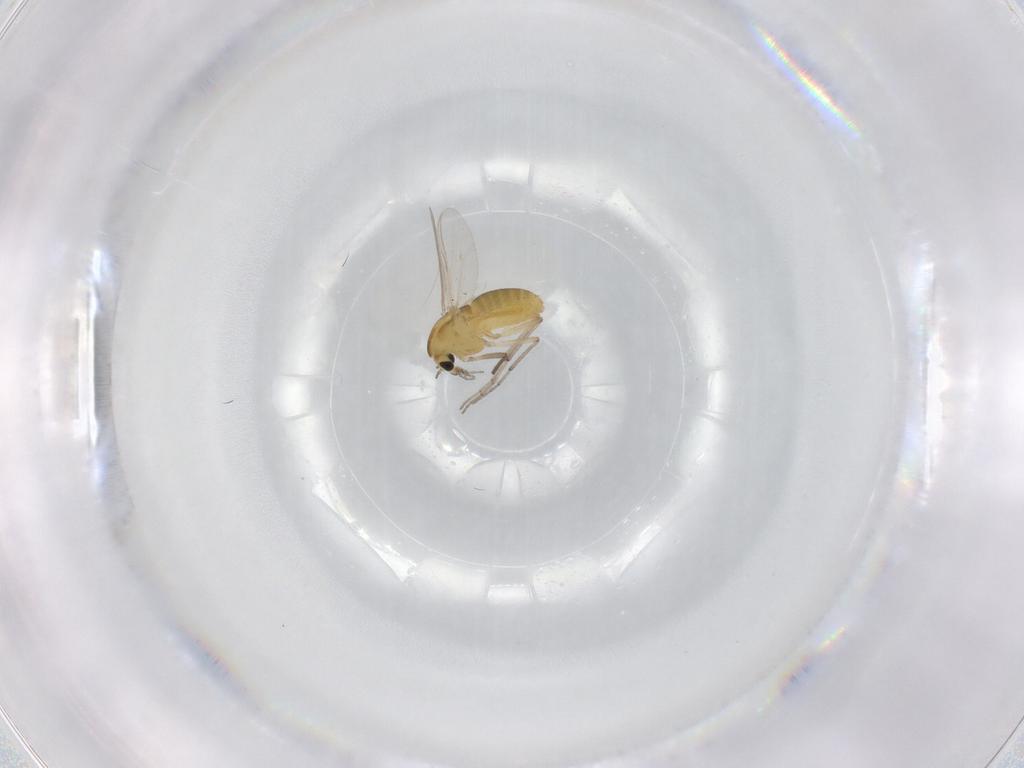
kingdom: Animalia
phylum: Arthropoda
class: Insecta
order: Diptera
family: Chironomidae
